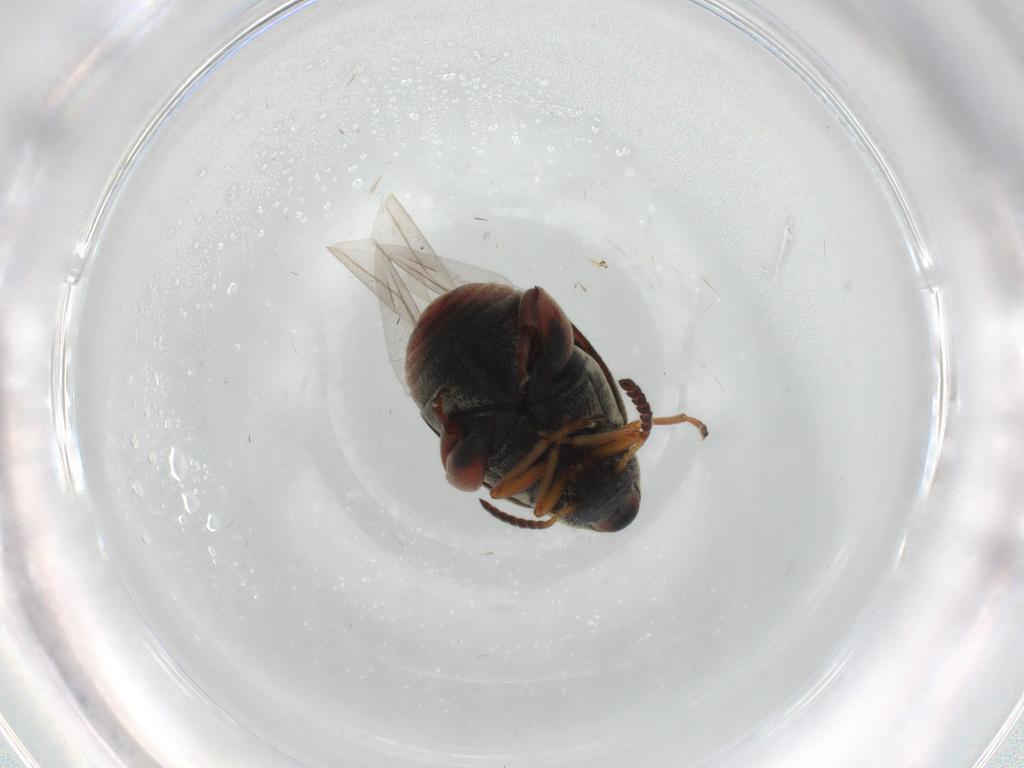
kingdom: Animalia
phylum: Arthropoda
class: Insecta
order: Coleoptera
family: Chrysomelidae
